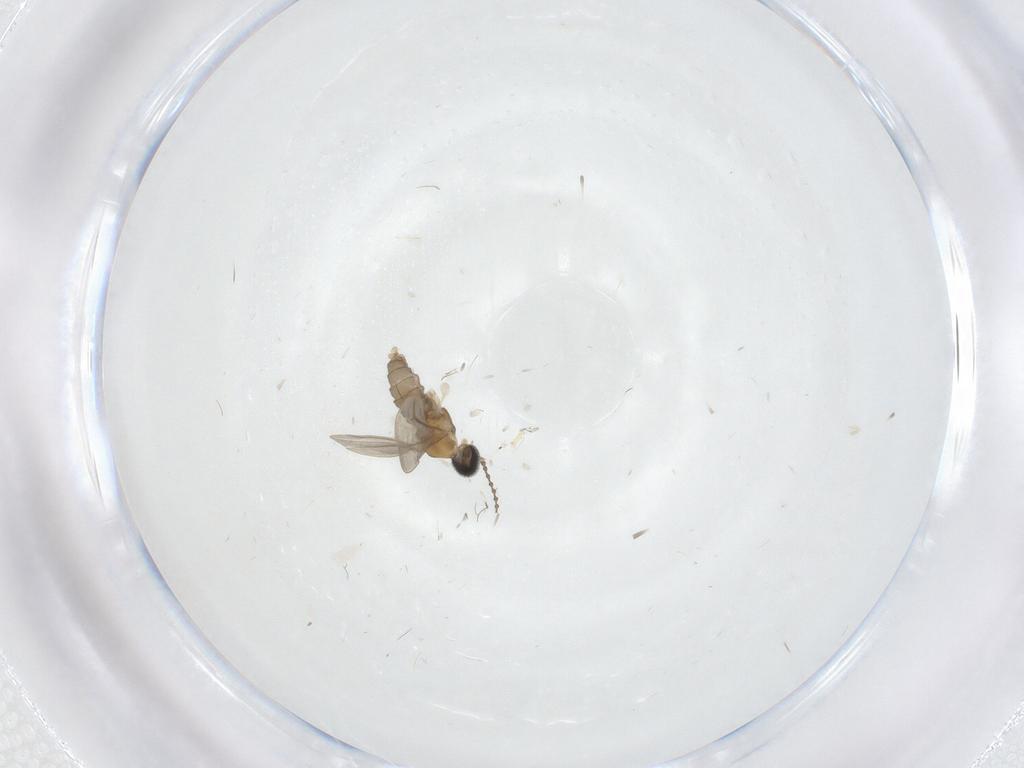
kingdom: Animalia
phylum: Arthropoda
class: Insecta
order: Diptera
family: Cecidomyiidae
